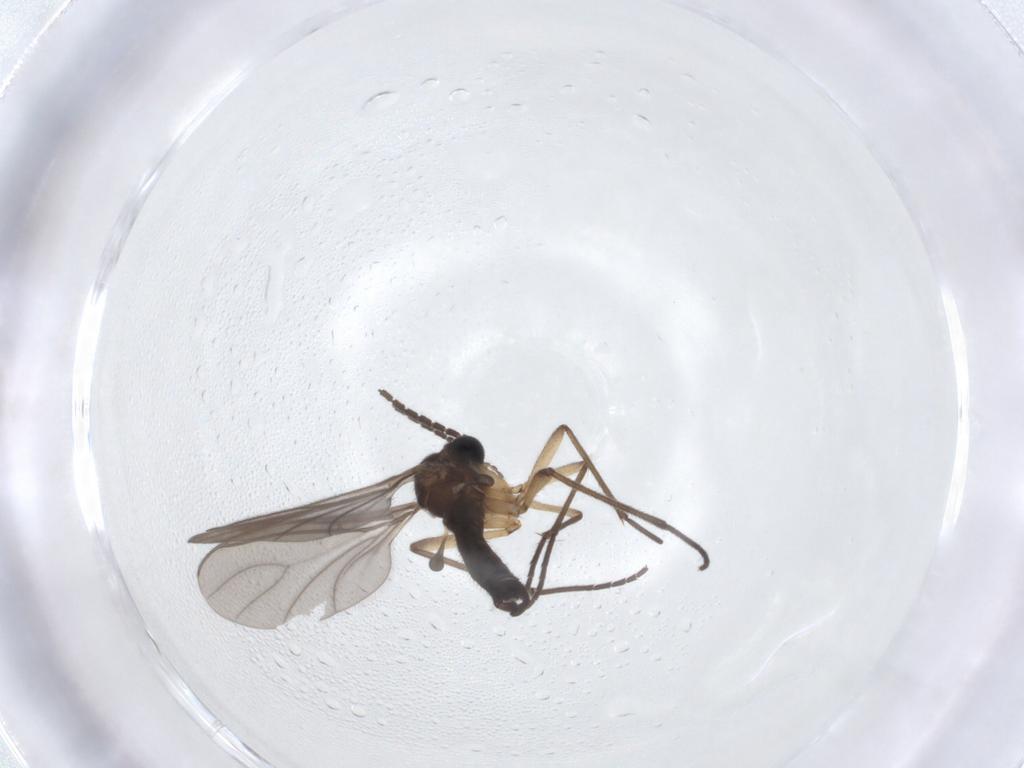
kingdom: Animalia
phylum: Arthropoda
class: Insecta
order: Diptera
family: Sciaridae
